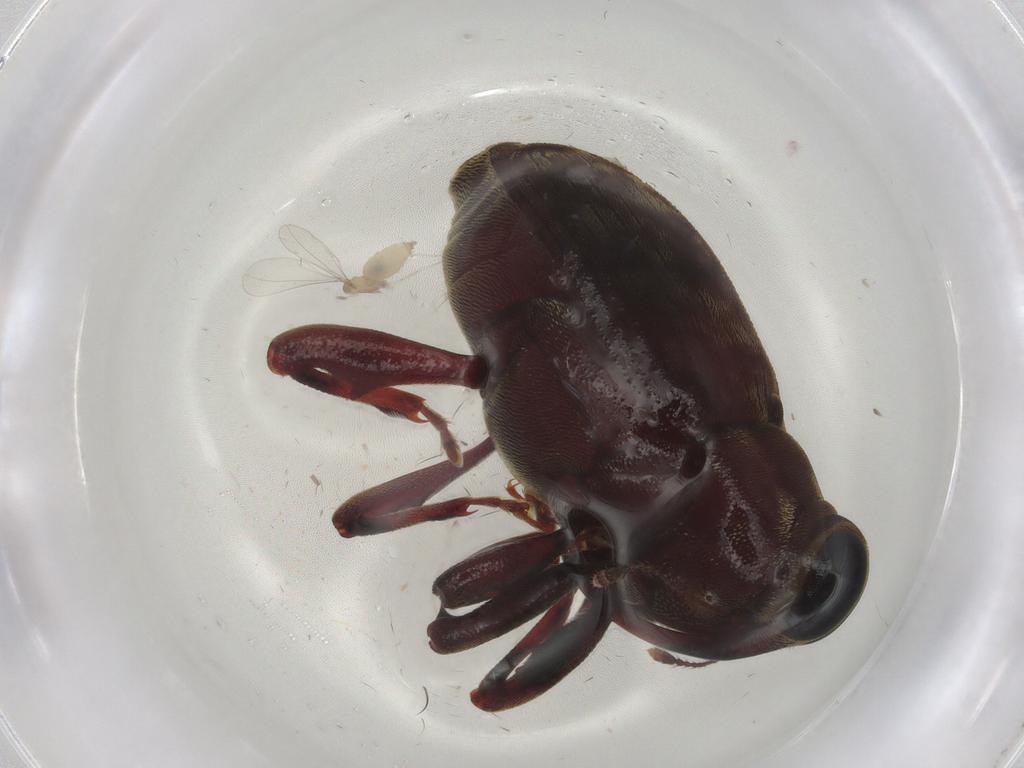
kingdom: Animalia
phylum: Arthropoda
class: Insecta
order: Diptera
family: Cecidomyiidae
